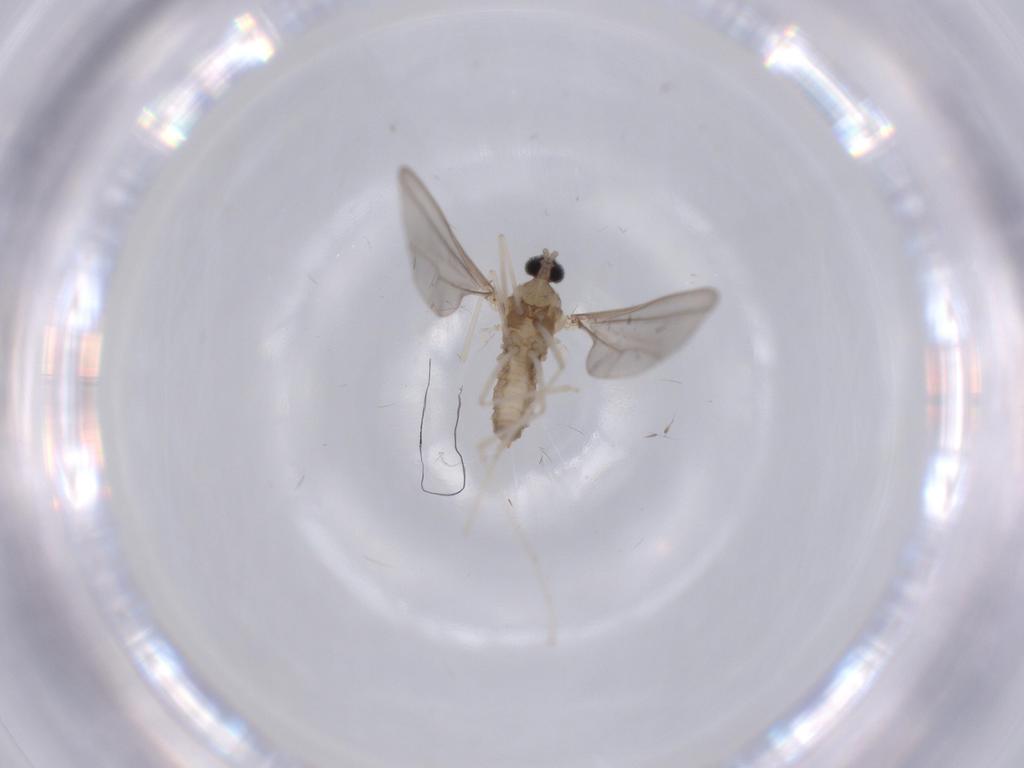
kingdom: Animalia
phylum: Arthropoda
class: Insecta
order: Diptera
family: Cecidomyiidae
